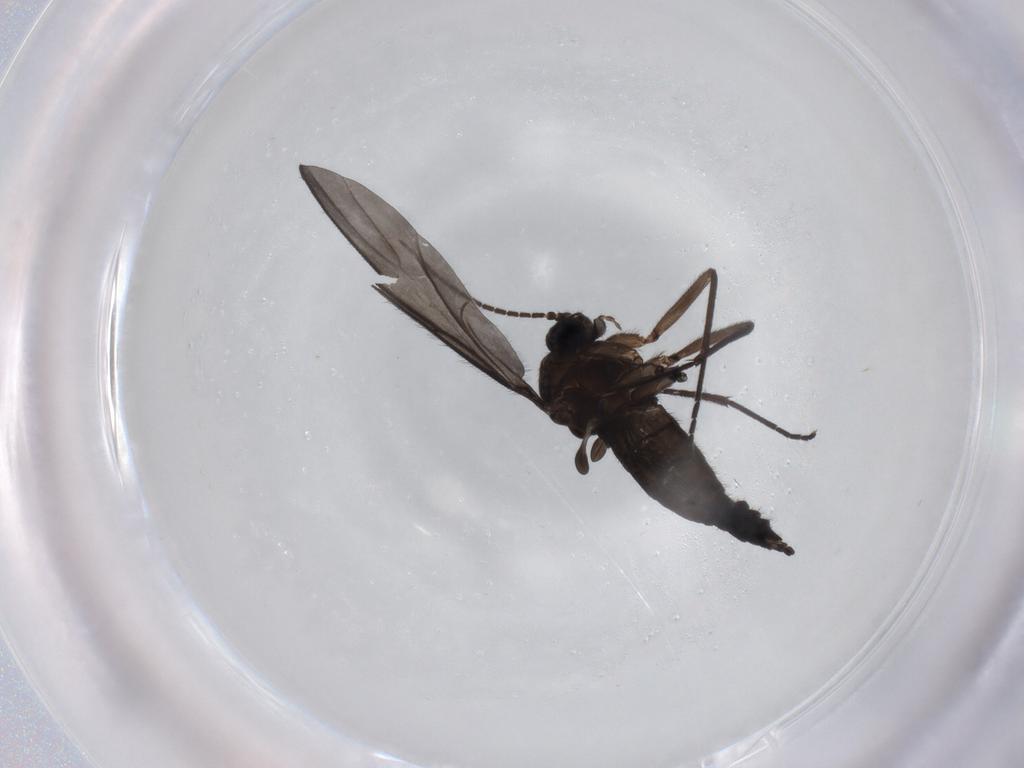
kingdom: Animalia
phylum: Arthropoda
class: Insecta
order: Diptera
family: Sciaridae
